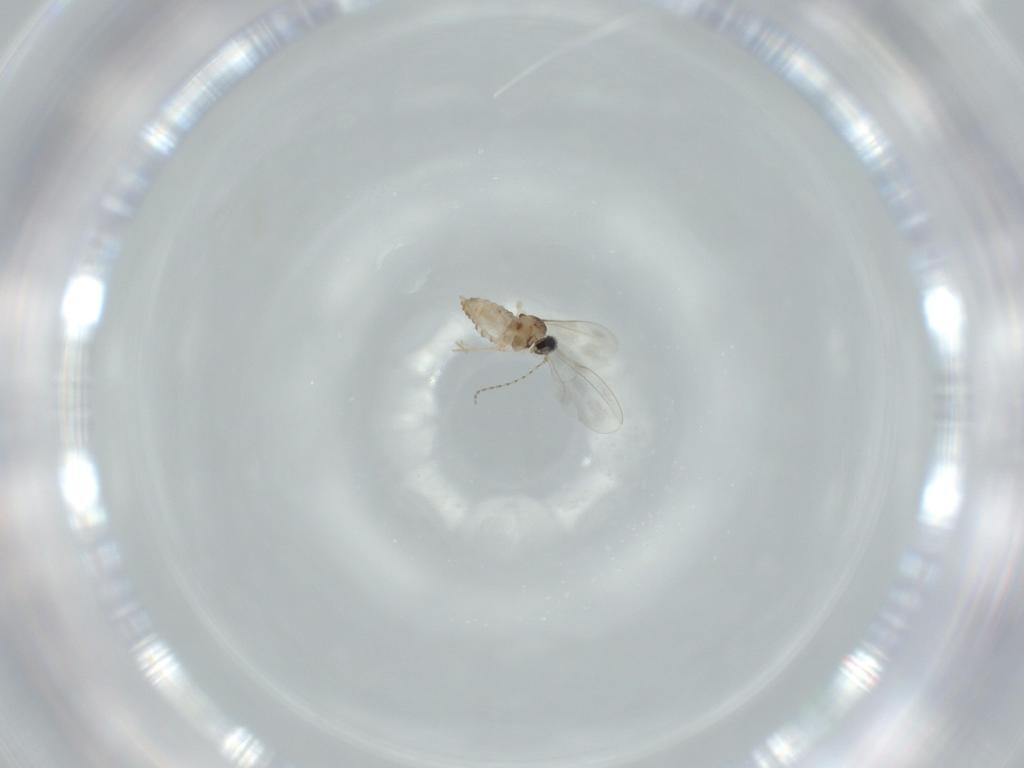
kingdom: Animalia
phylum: Arthropoda
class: Insecta
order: Diptera
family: Cecidomyiidae
